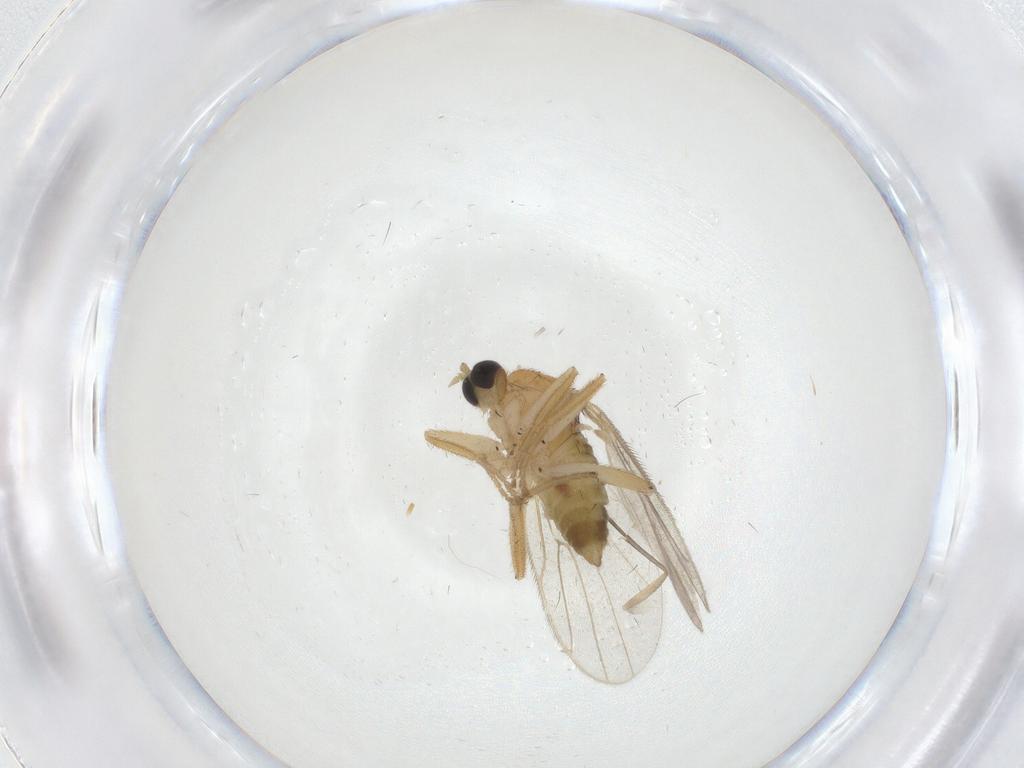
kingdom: Animalia
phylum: Arthropoda
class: Insecta
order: Diptera
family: Hybotidae
